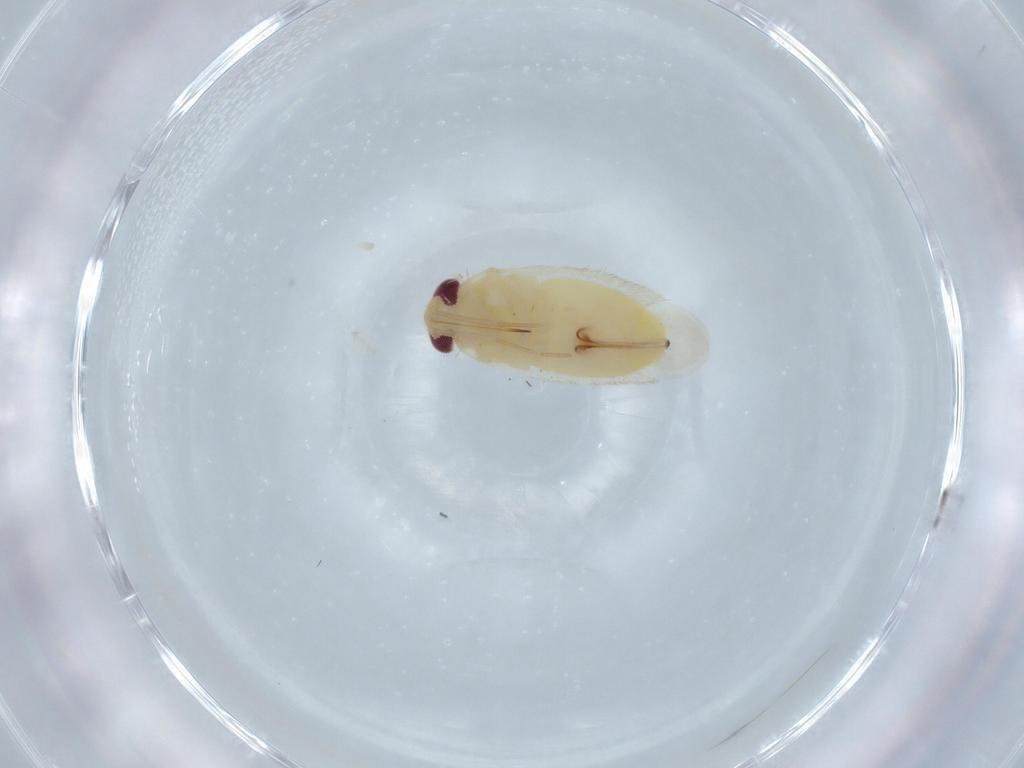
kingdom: Animalia
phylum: Arthropoda
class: Insecta
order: Hemiptera
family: Miridae
